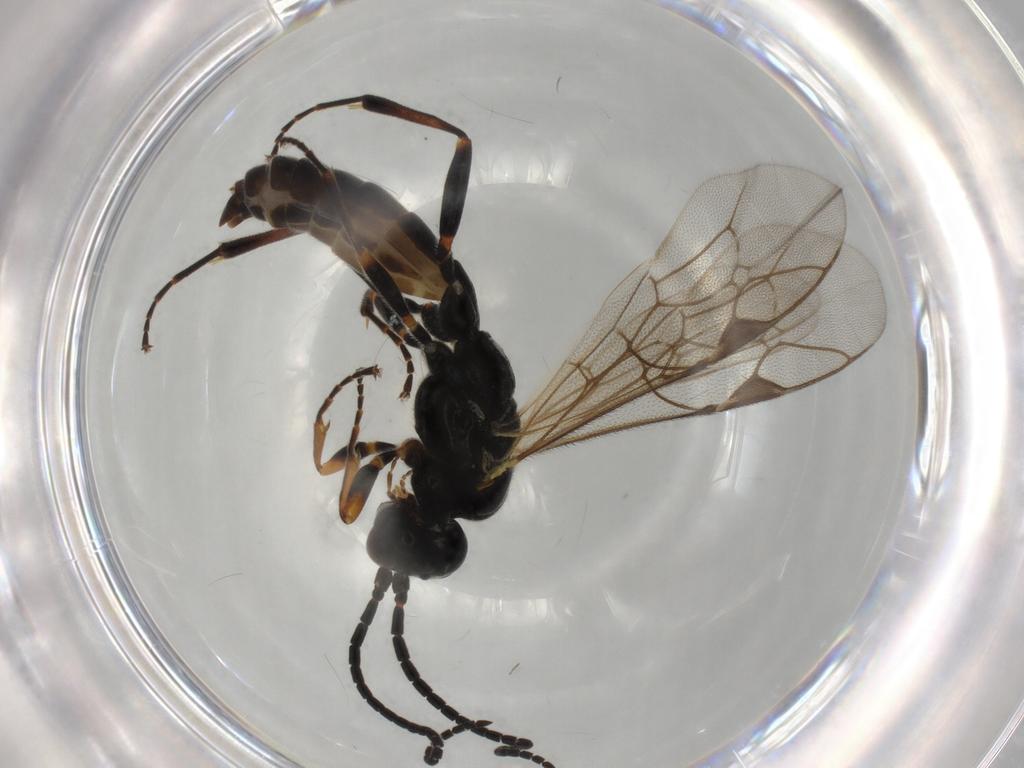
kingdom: Animalia
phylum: Arthropoda
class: Insecta
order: Hymenoptera
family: Ichneumonidae
